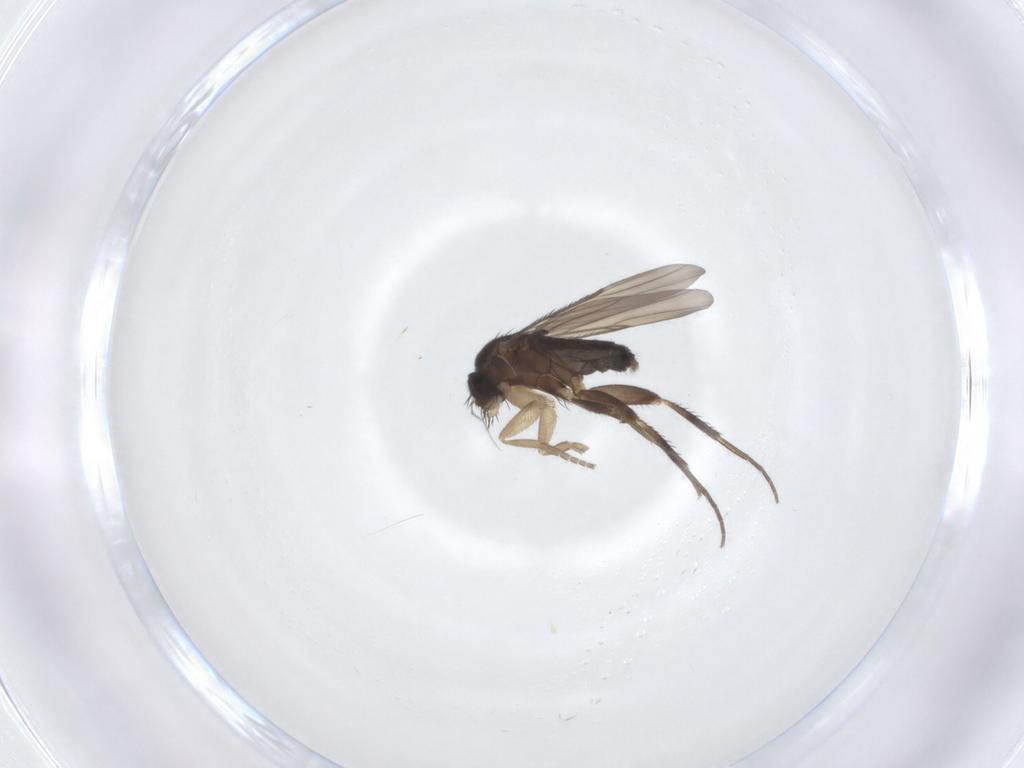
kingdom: Animalia
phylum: Arthropoda
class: Insecta
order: Diptera
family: Phoridae
